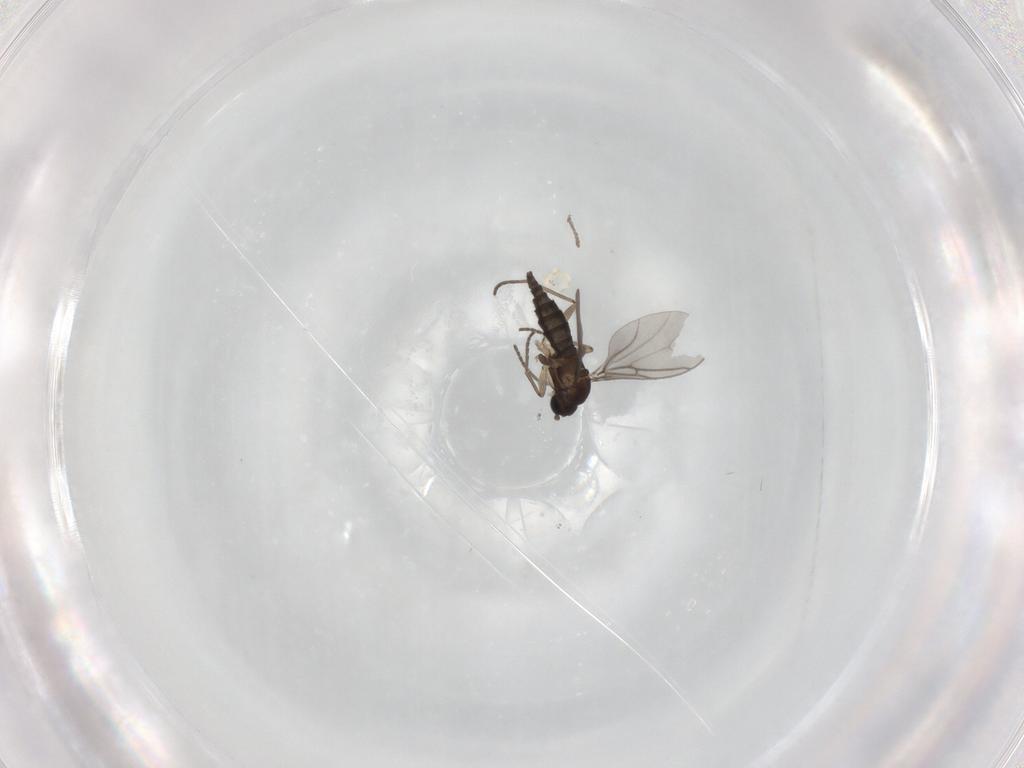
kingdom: Animalia
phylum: Arthropoda
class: Insecta
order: Diptera
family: Sciaridae
